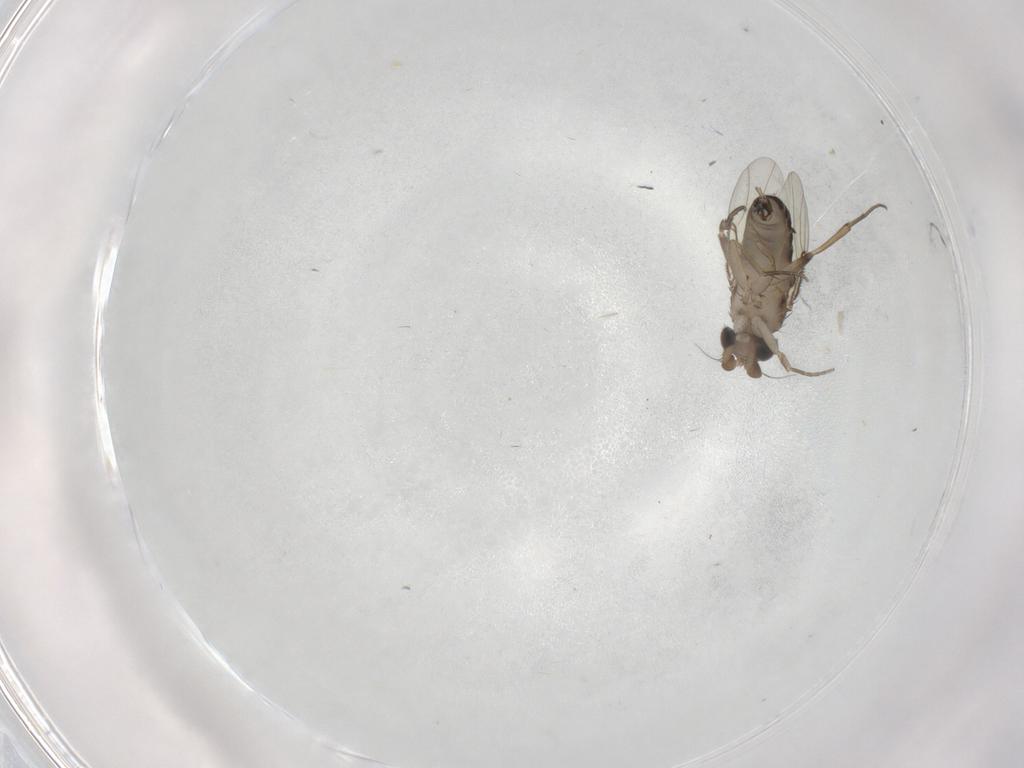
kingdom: Animalia
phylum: Arthropoda
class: Insecta
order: Diptera
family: Phoridae
